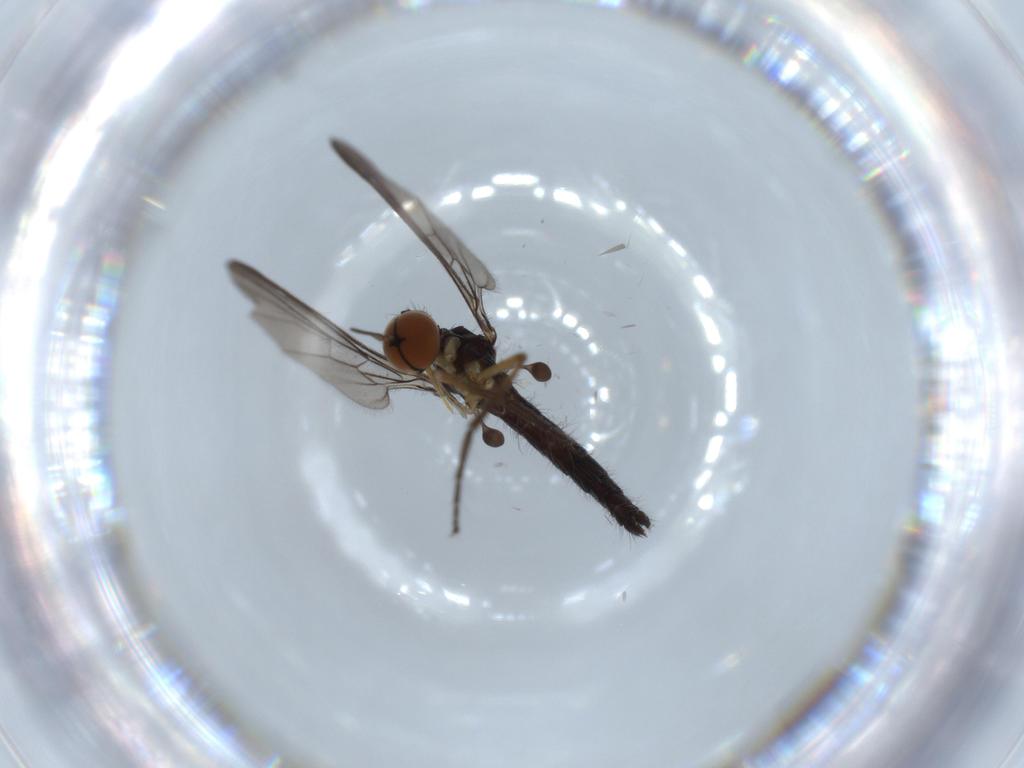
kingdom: Animalia
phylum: Arthropoda
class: Insecta
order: Diptera
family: Empididae
